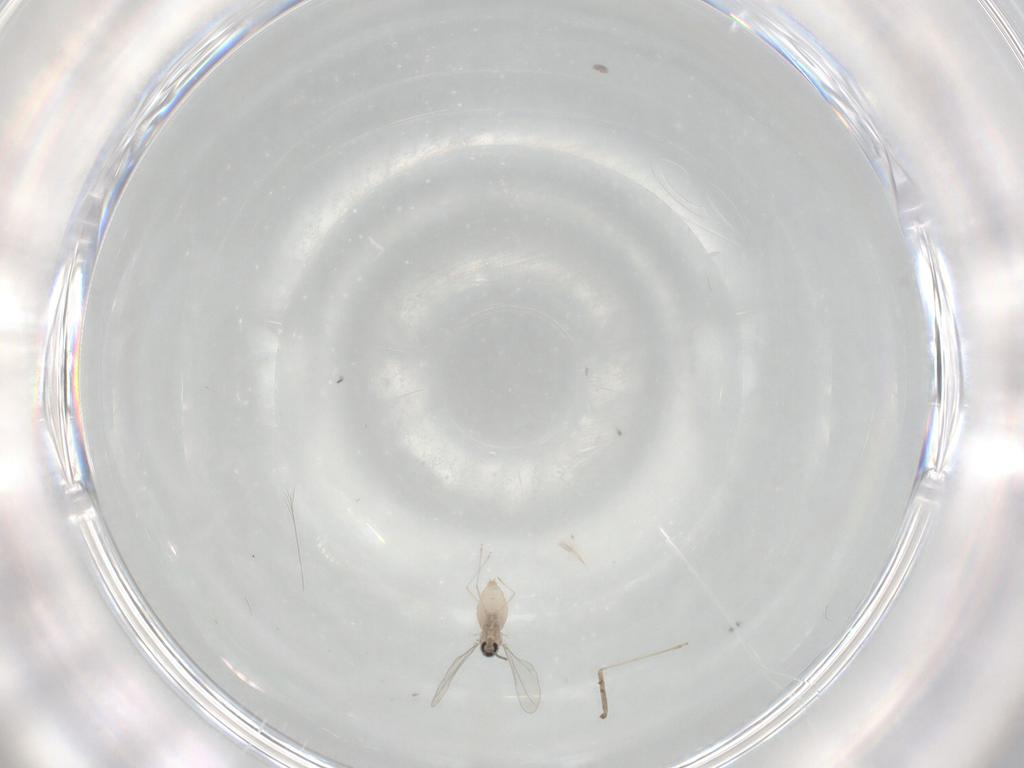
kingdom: Animalia
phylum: Arthropoda
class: Insecta
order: Diptera
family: Cecidomyiidae
